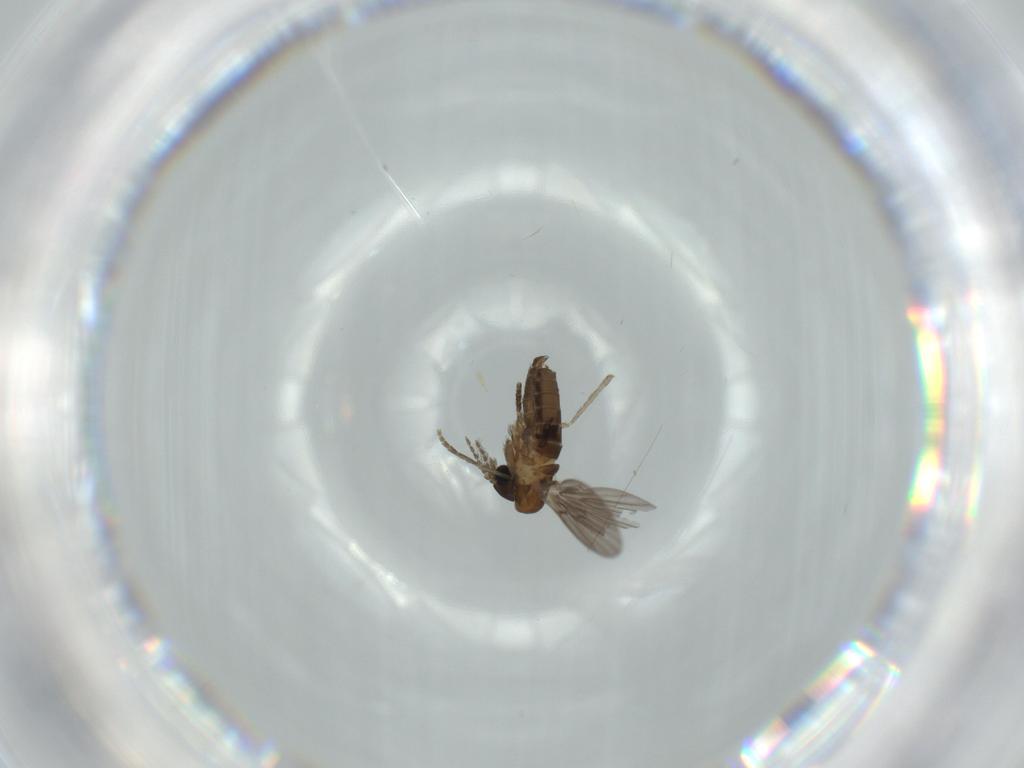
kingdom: Animalia
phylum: Arthropoda
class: Insecta
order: Diptera
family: Psychodidae
